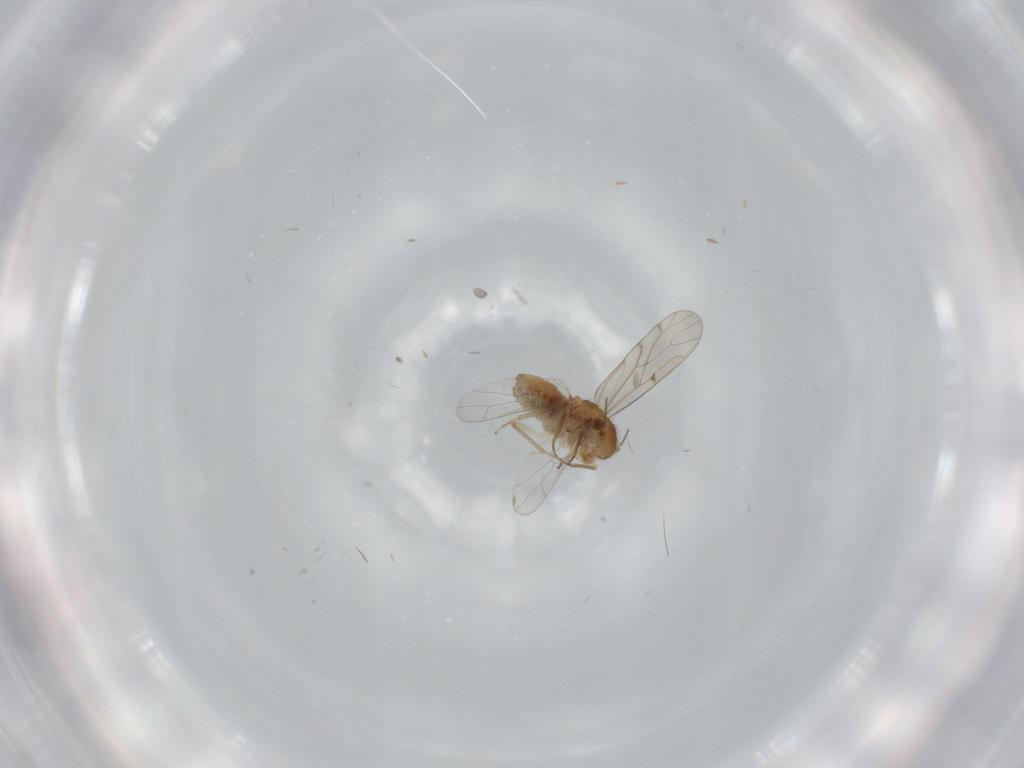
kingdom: Animalia
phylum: Arthropoda
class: Insecta
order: Psocodea
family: Ectopsocidae
